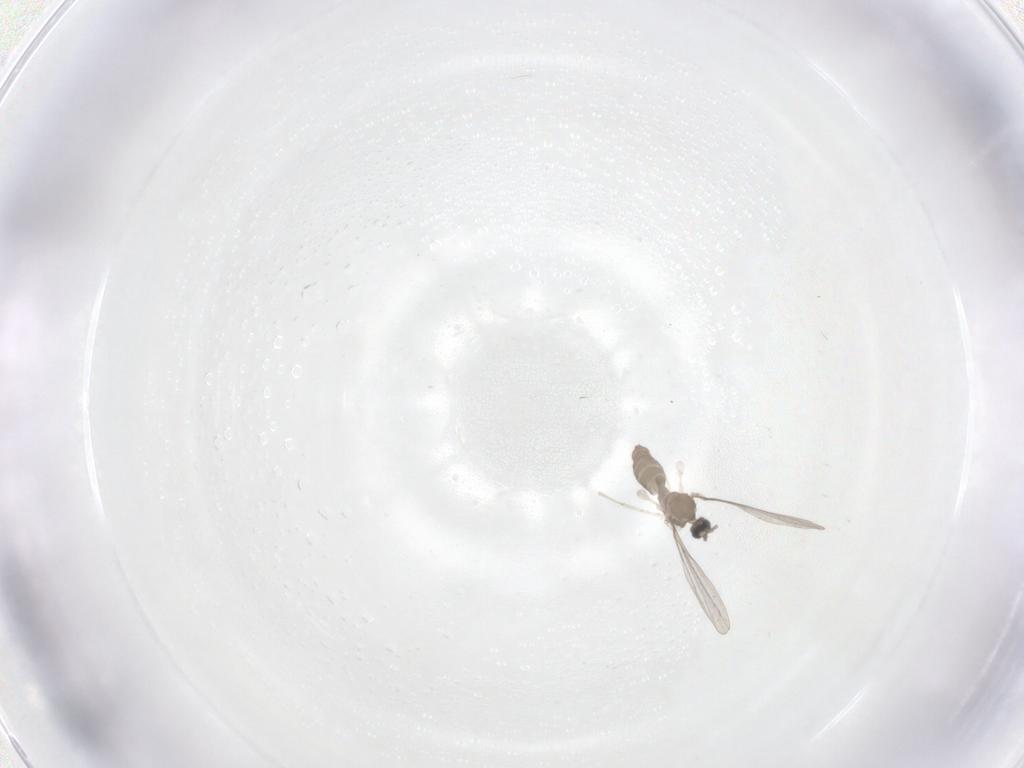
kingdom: Animalia
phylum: Arthropoda
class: Insecta
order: Diptera
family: Cecidomyiidae
